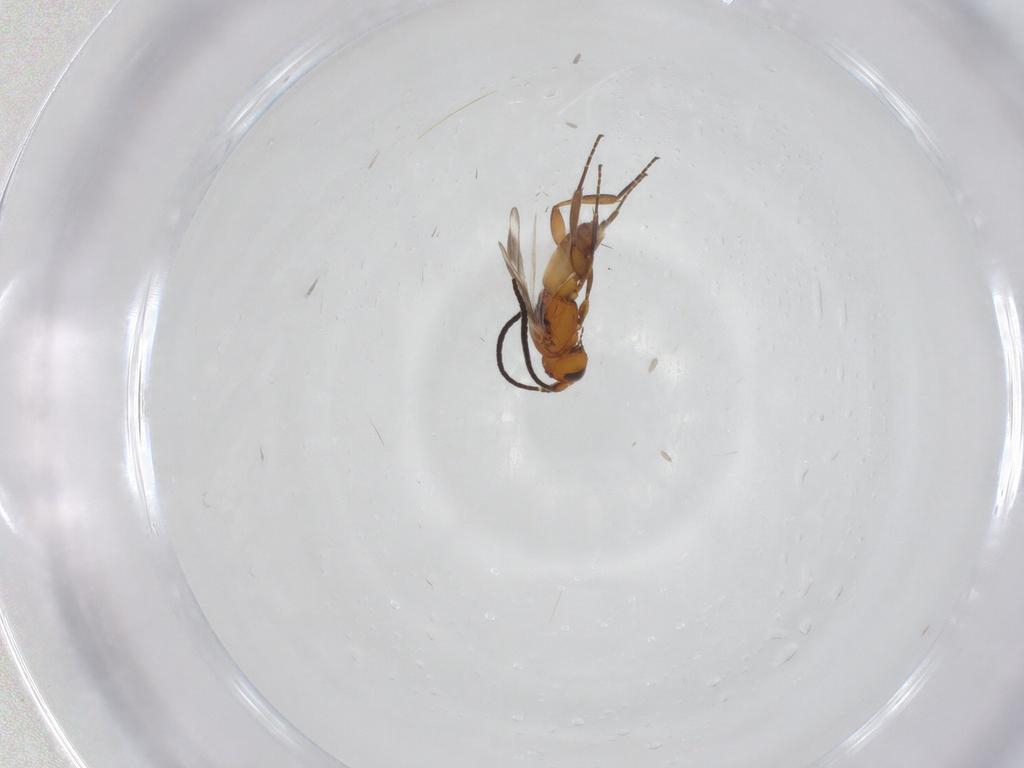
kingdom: Animalia
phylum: Arthropoda
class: Insecta
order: Hymenoptera
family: Braconidae
